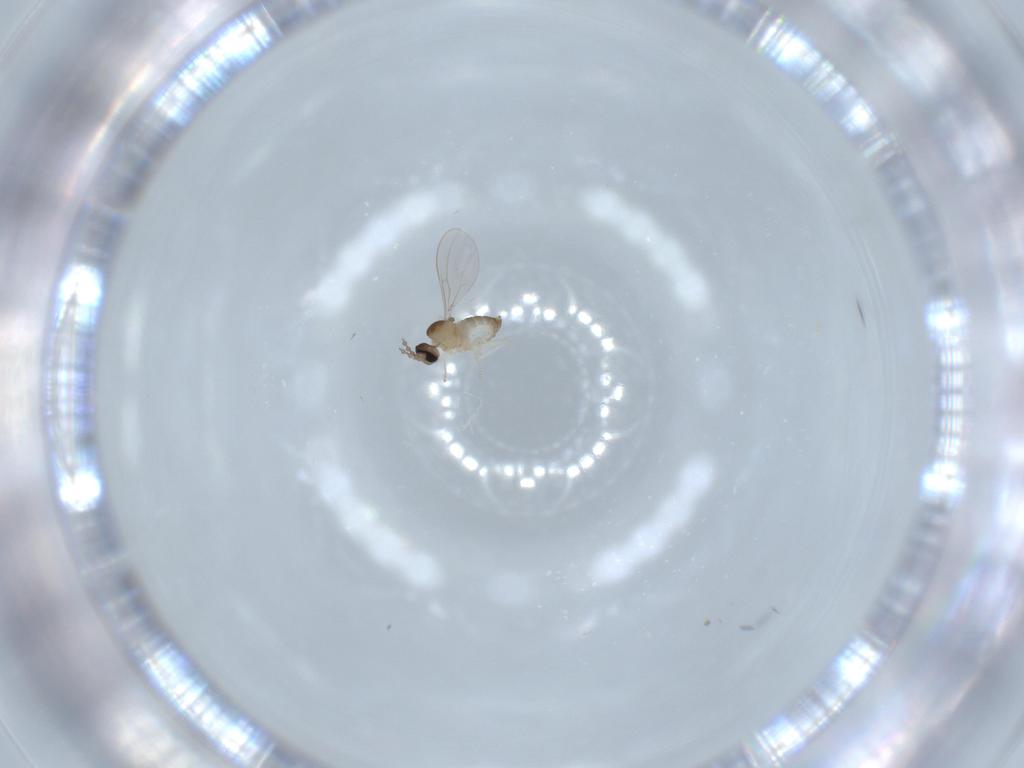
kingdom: Animalia
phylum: Arthropoda
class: Insecta
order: Diptera
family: Cecidomyiidae
